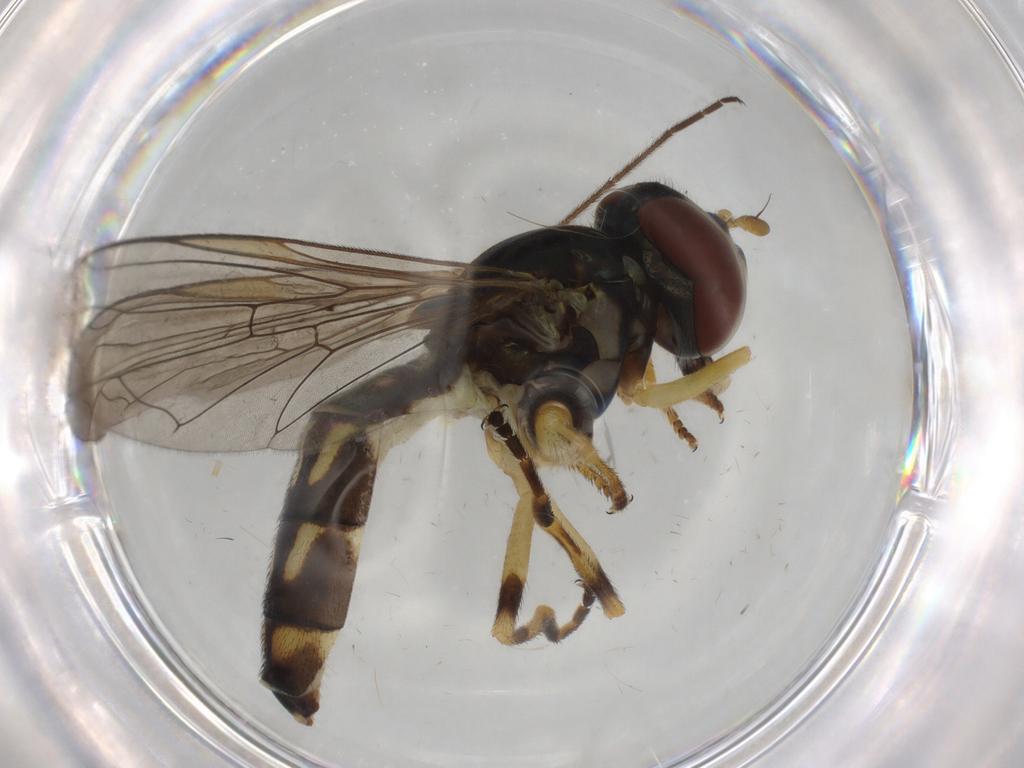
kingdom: Animalia
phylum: Arthropoda
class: Insecta
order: Diptera
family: Limoniidae
